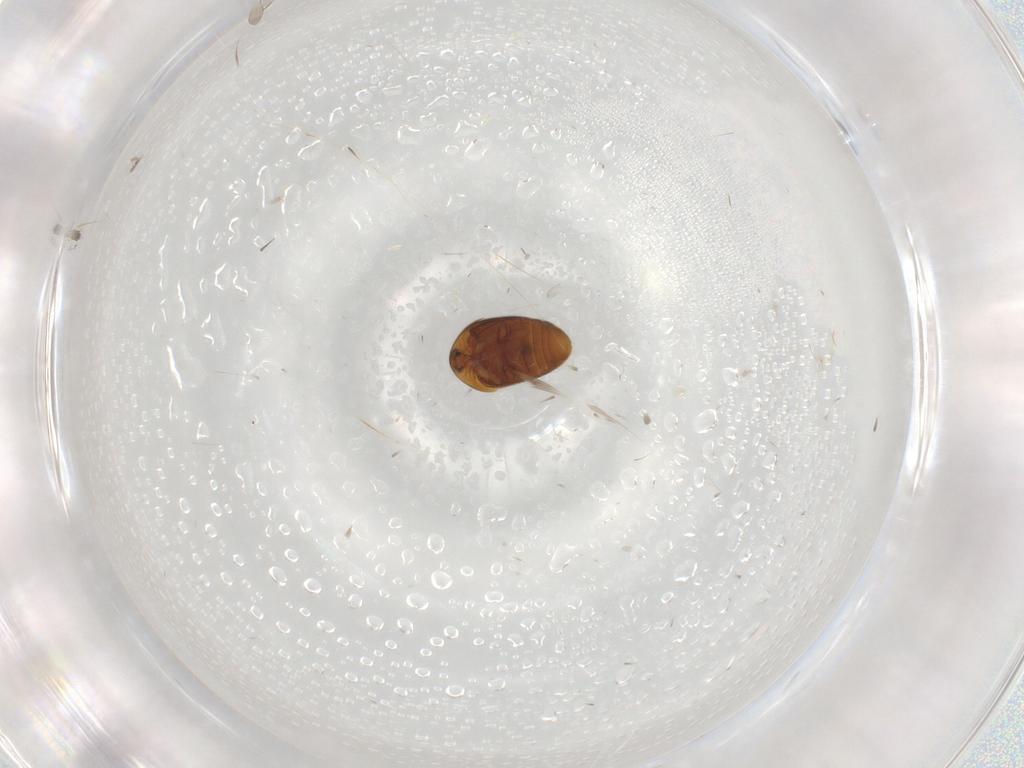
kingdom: Animalia
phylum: Arthropoda
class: Insecta
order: Coleoptera
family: Corylophidae
